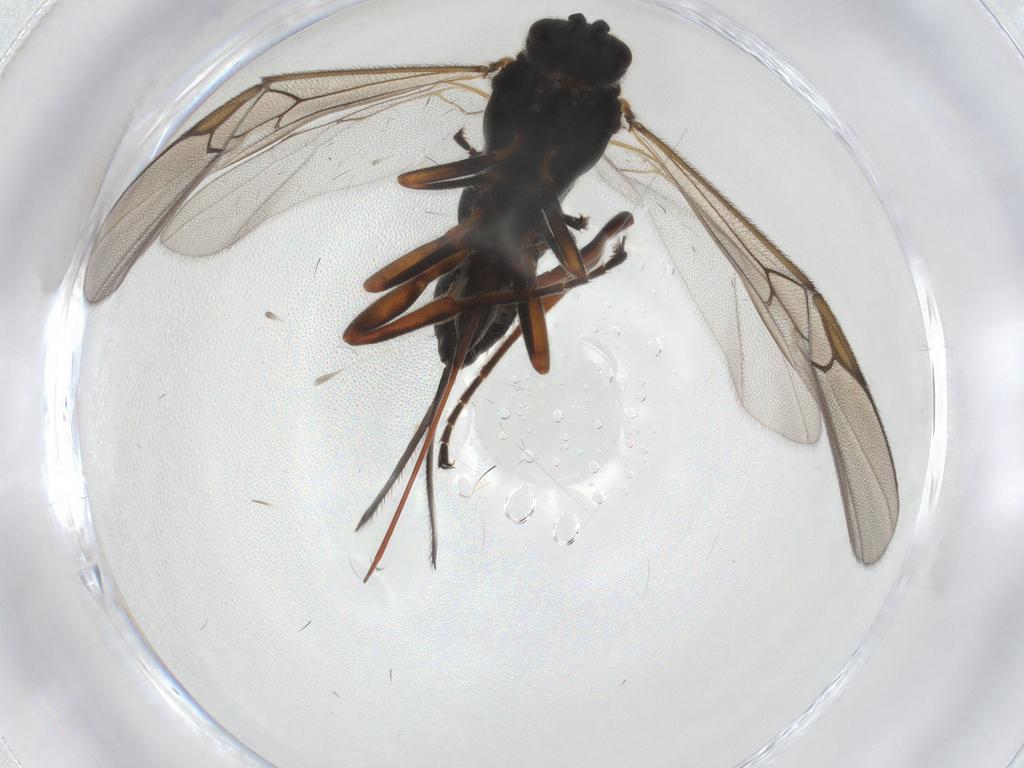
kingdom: Animalia
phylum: Arthropoda
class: Insecta
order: Hymenoptera
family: Braconidae
